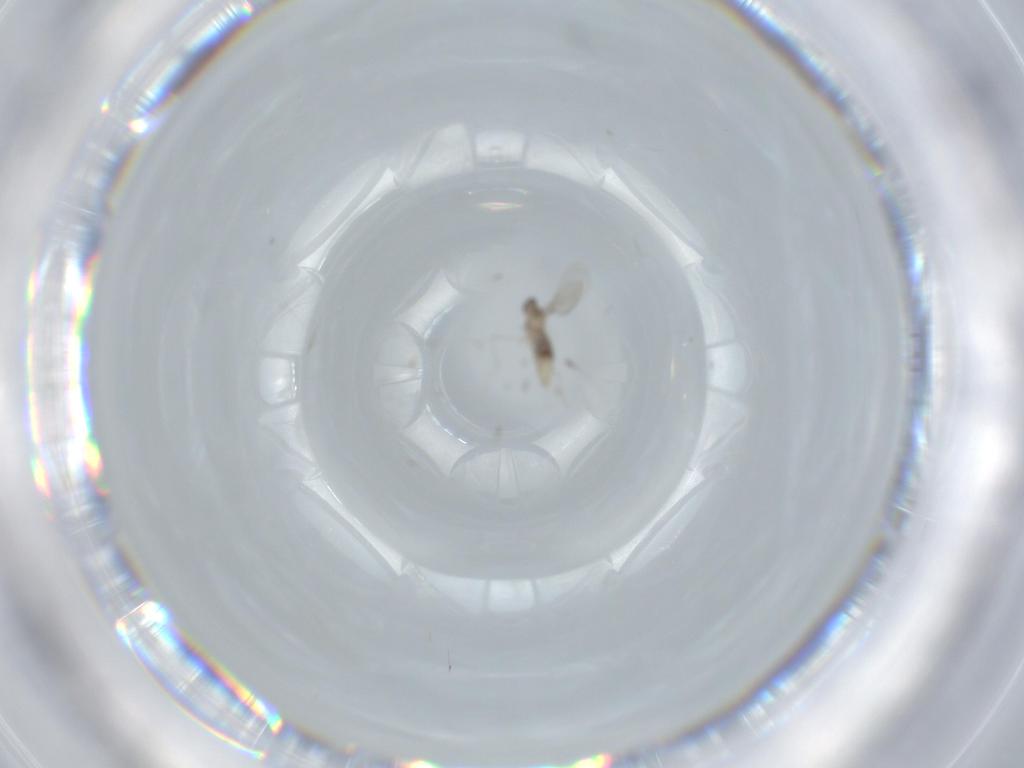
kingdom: Animalia
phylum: Arthropoda
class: Insecta
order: Diptera
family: Cecidomyiidae
